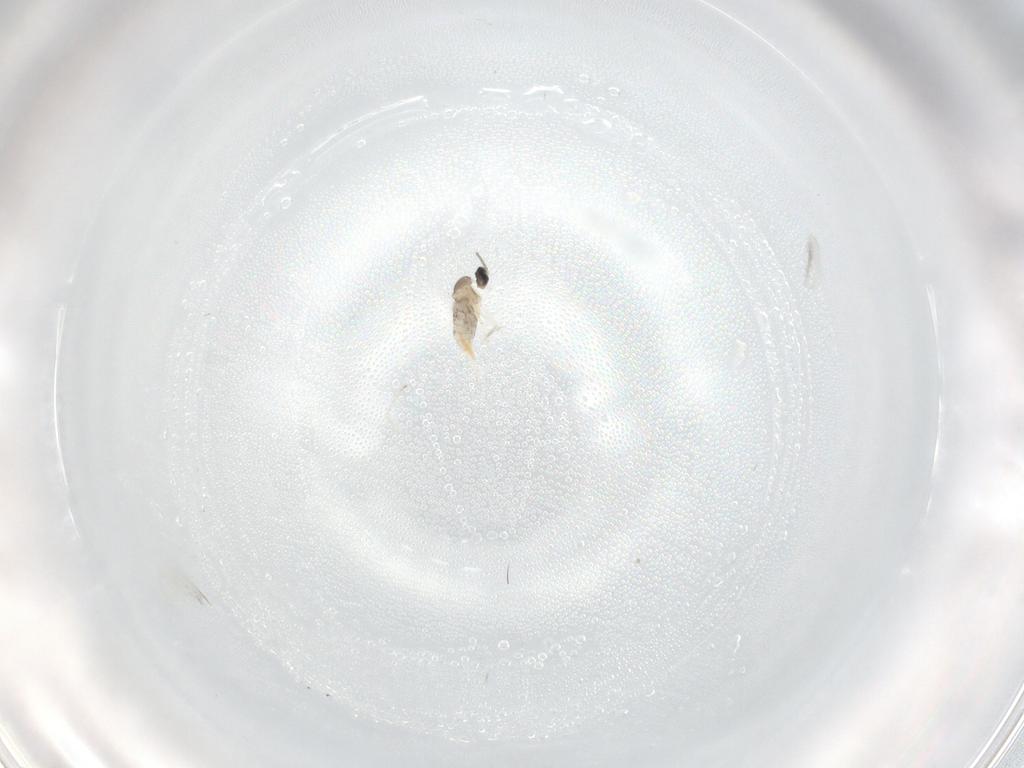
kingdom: Animalia
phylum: Arthropoda
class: Insecta
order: Diptera
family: Cecidomyiidae
